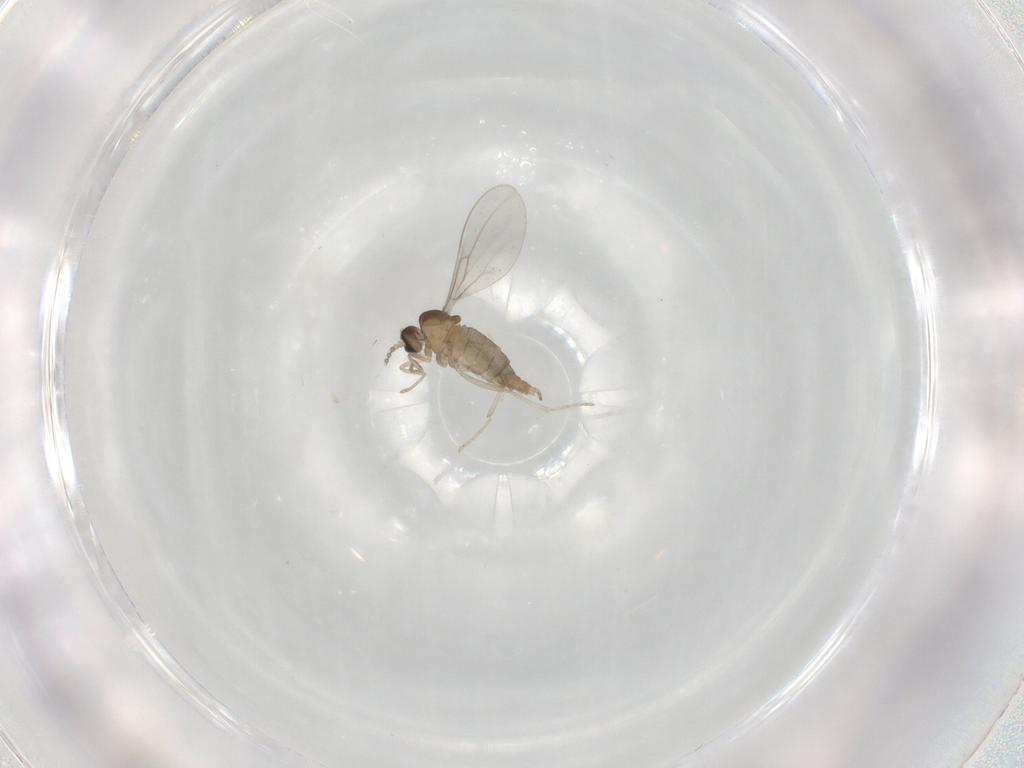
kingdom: Animalia
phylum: Arthropoda
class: Insecta
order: Diptera
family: Cecidomyiidae
